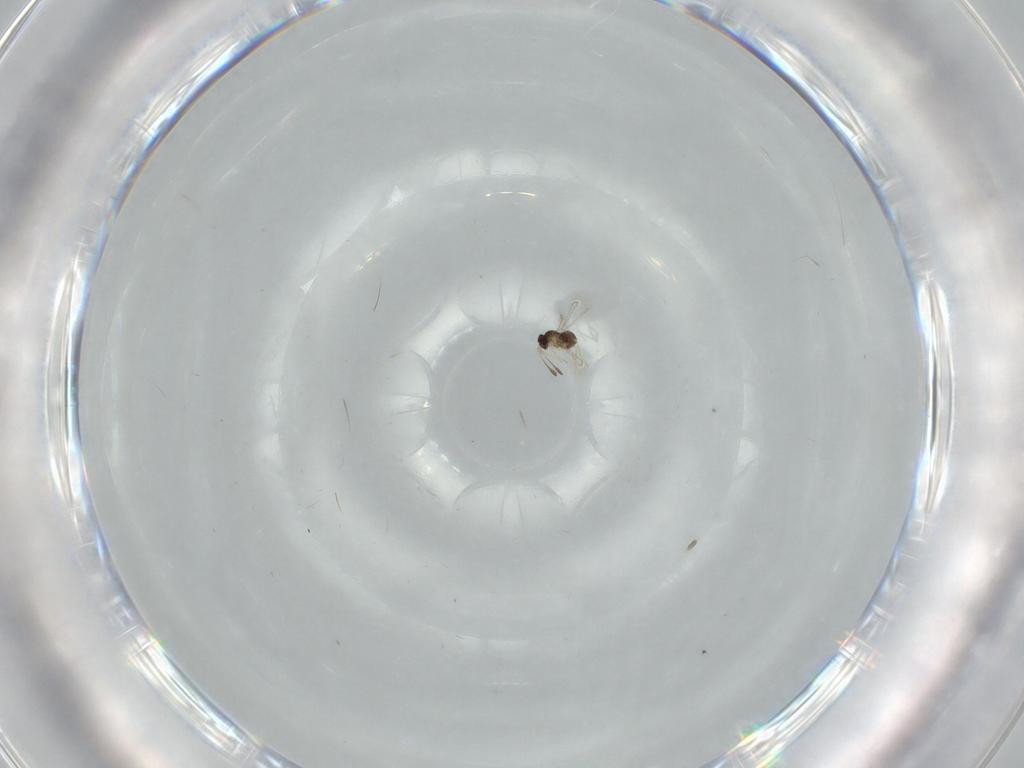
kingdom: Animalia
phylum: Arthropoda
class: Insecta
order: Hymenoptera
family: Mymaridae
